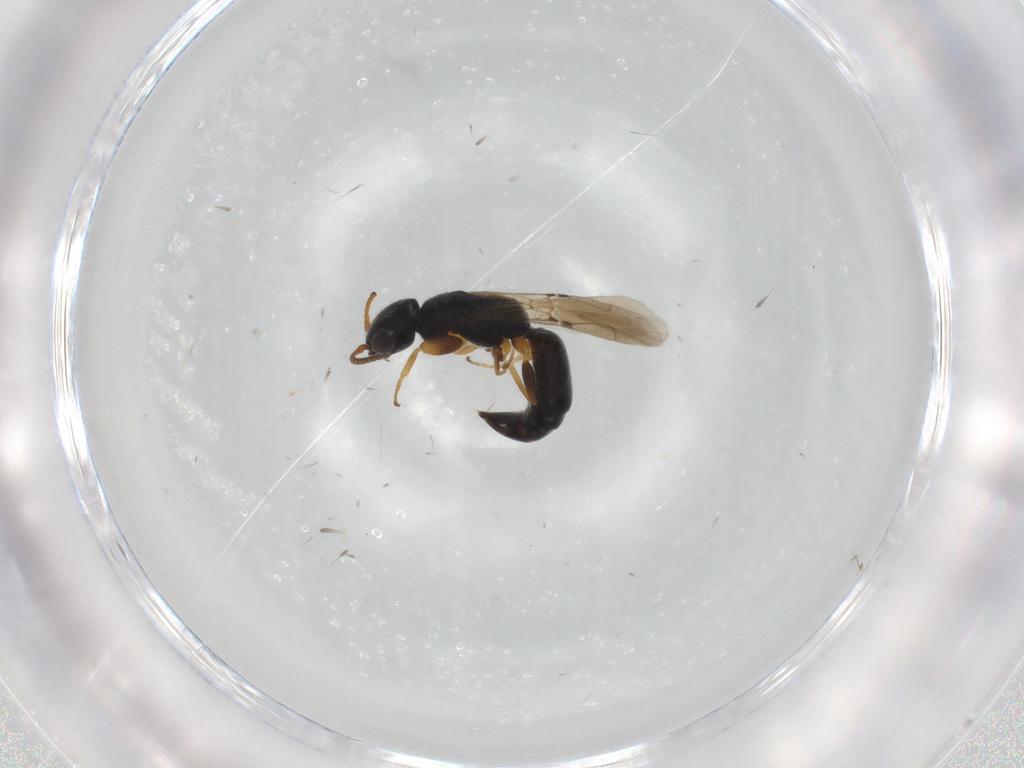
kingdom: Animalia
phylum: Arthropoda
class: Insecta
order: Hymenoptera
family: Bethylidae
